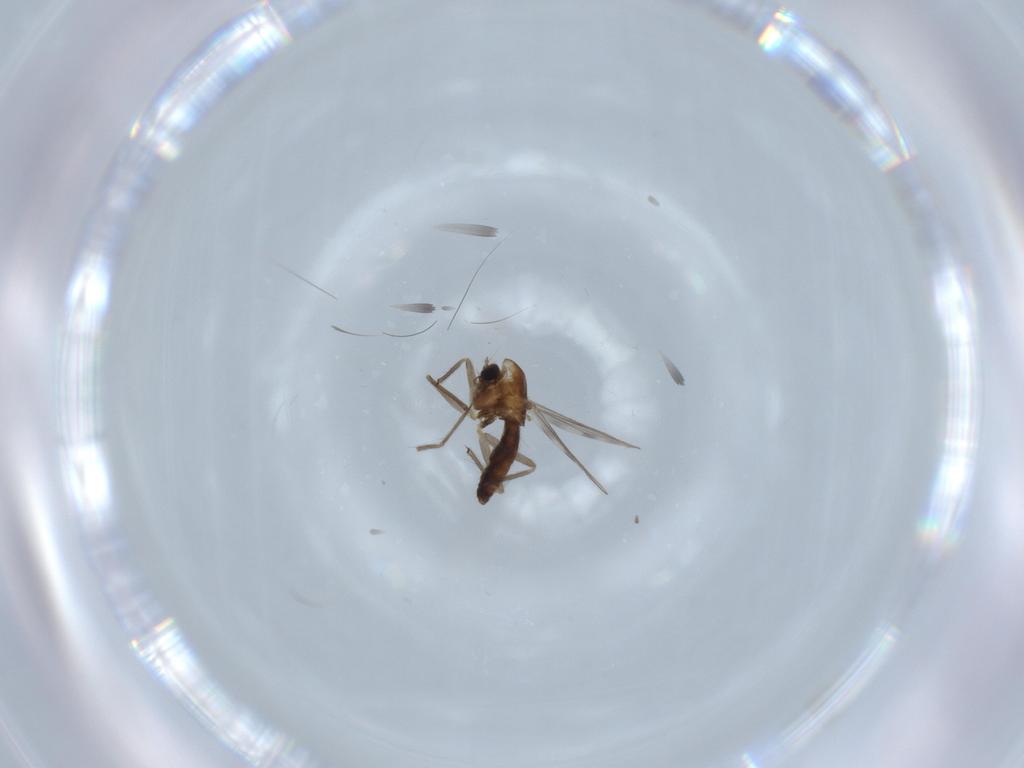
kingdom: Animalia
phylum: Arthropoda
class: Insecta
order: Diptera
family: Chironomidae
